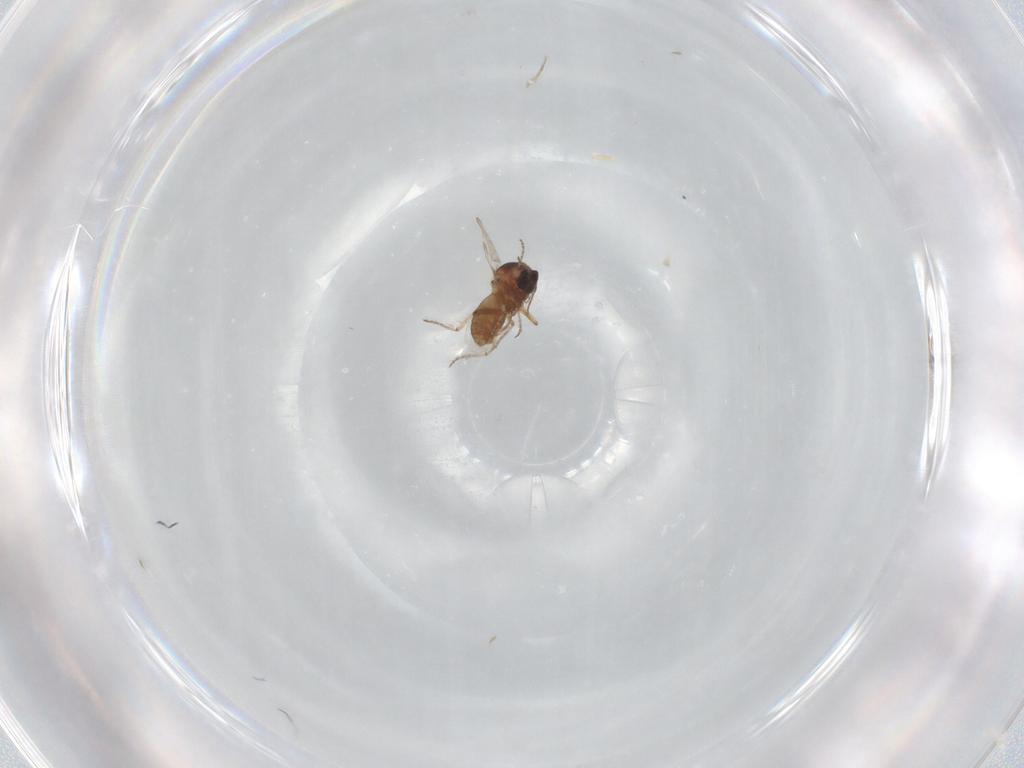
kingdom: Animalia
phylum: Arthropoda
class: Insecta
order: Diptera
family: Ceratopogonidae
